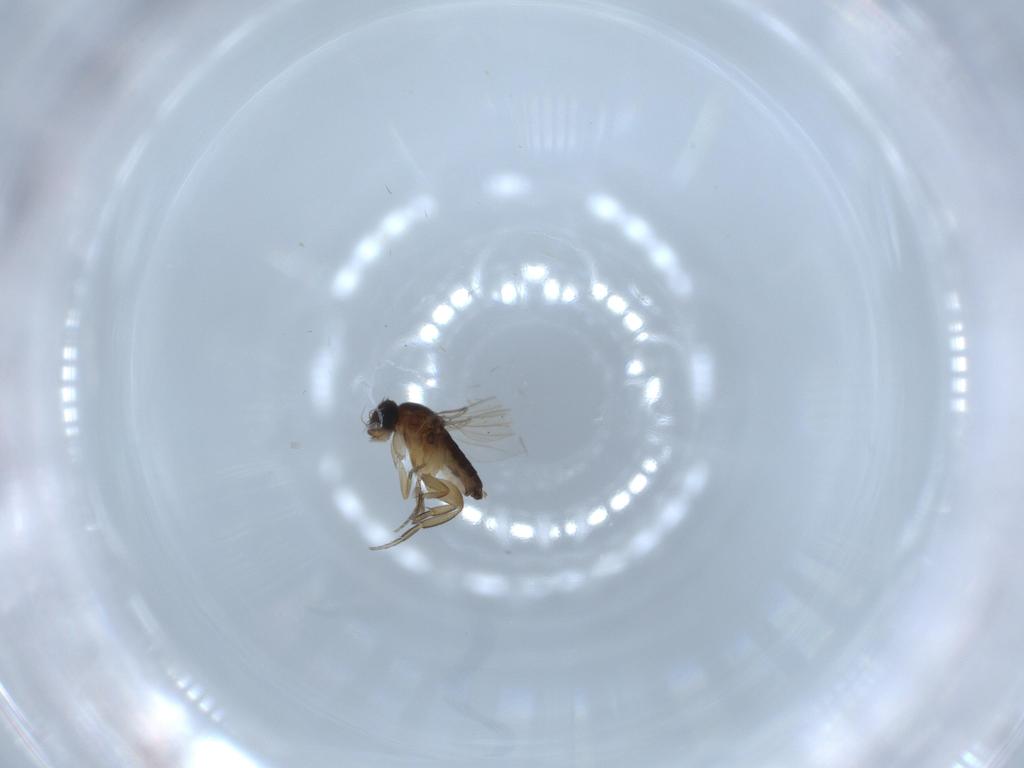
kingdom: Animalia
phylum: Arthropoda
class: Insecta
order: Diptera
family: Phoridae
